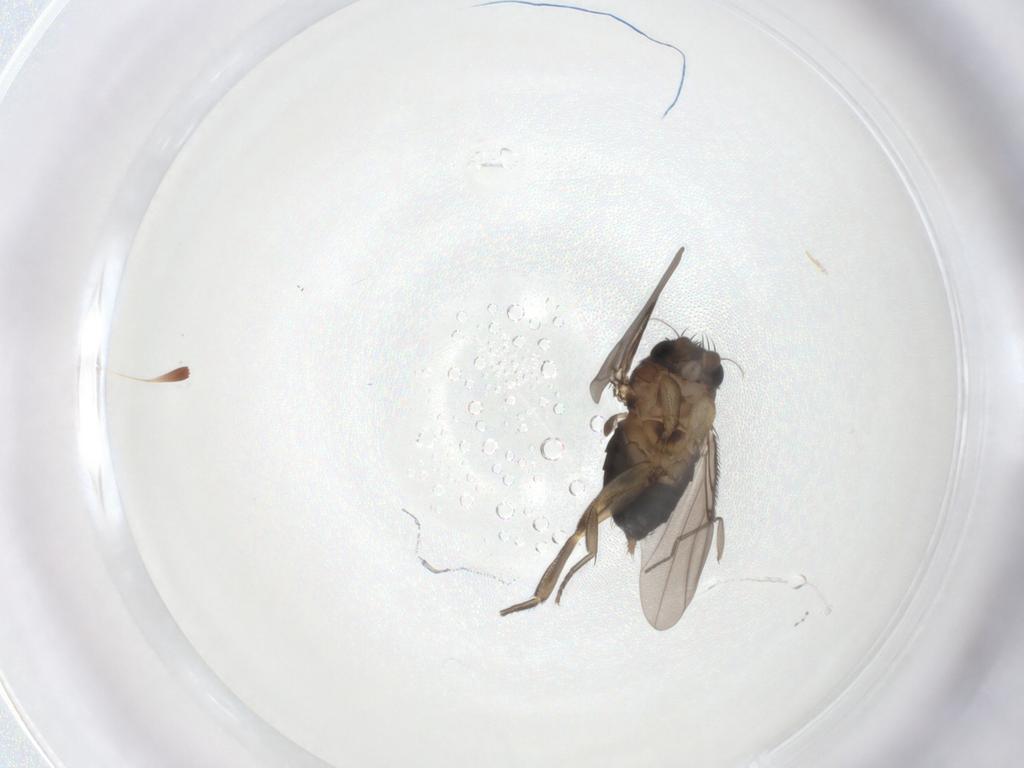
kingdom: Animalia
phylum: Arthropoda
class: Insecta
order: Diptera
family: Phoridae
